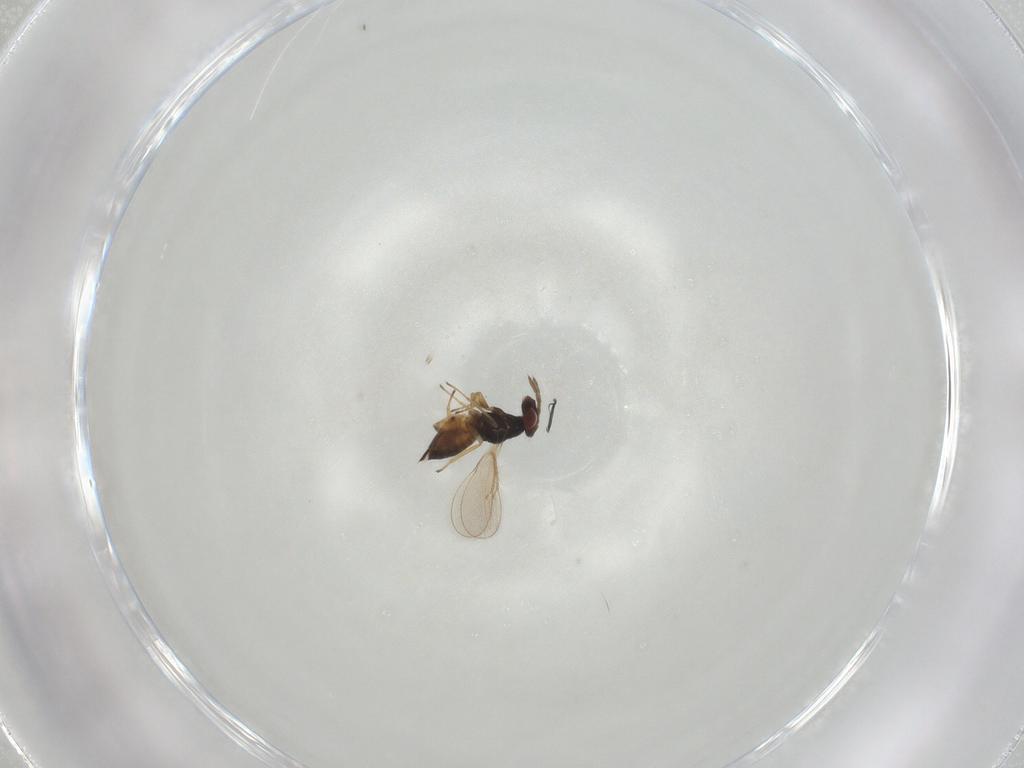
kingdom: Animalia
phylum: Arthropoda
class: Insecta
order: Hymenoptera
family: Eulophidae
